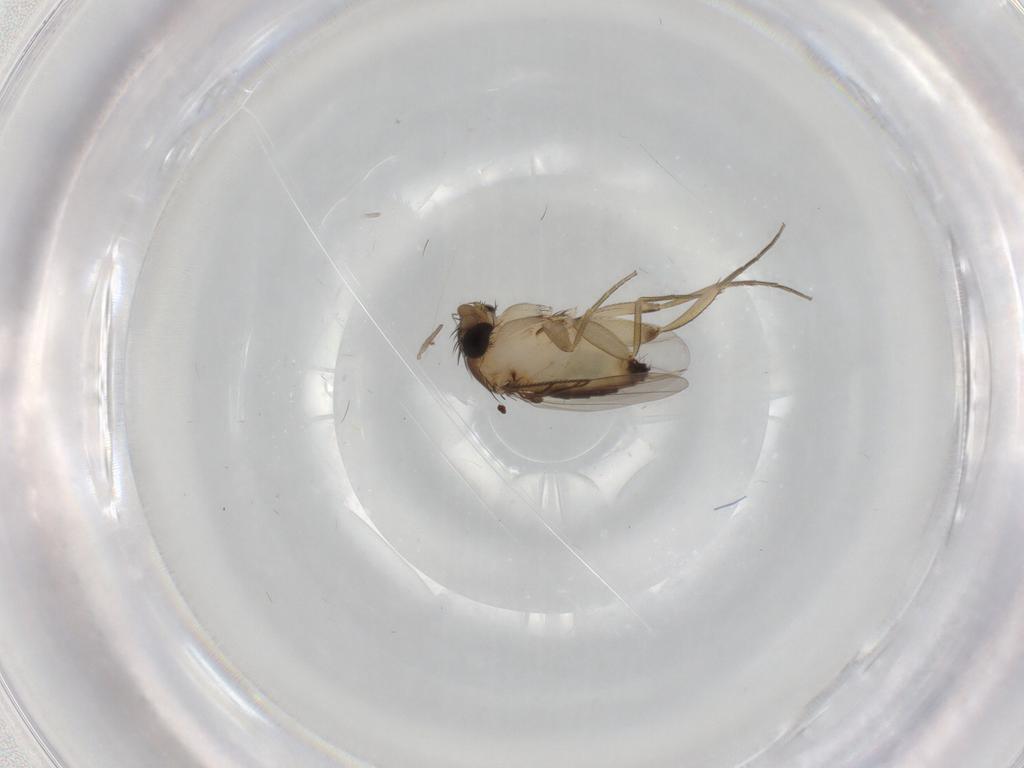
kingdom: Animalia
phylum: Arthropoda
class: Insecta
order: Diptera
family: Phoridae
